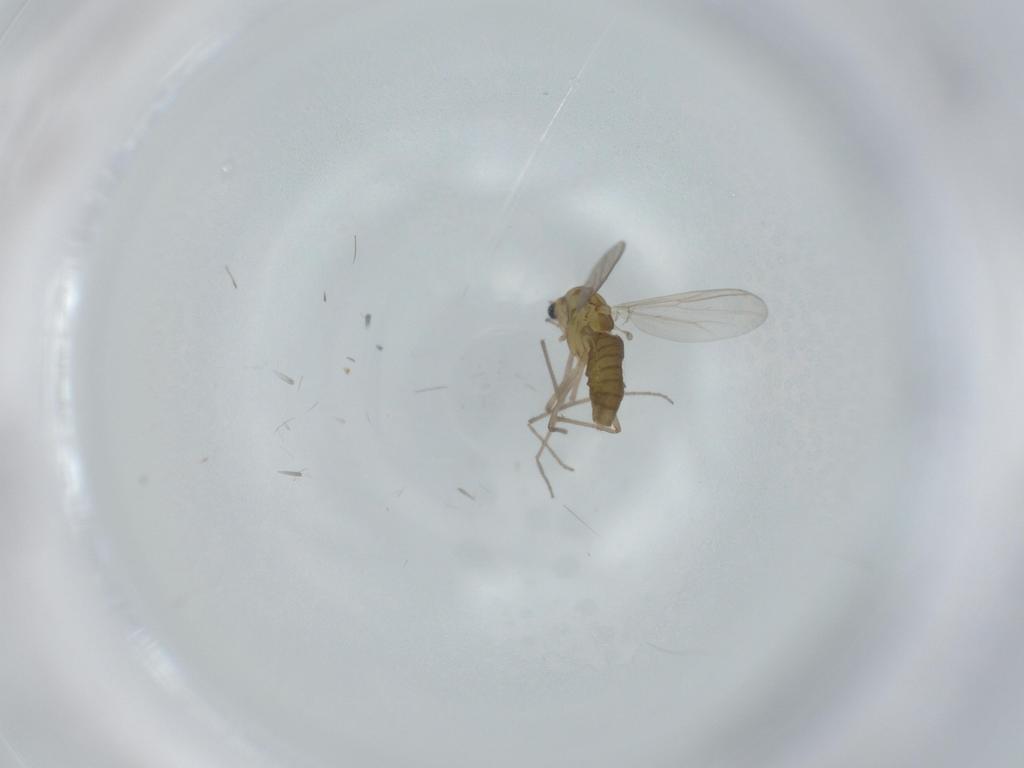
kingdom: Animalia
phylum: Arthropoda
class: Insecta
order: Diptera
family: Chironomidae
